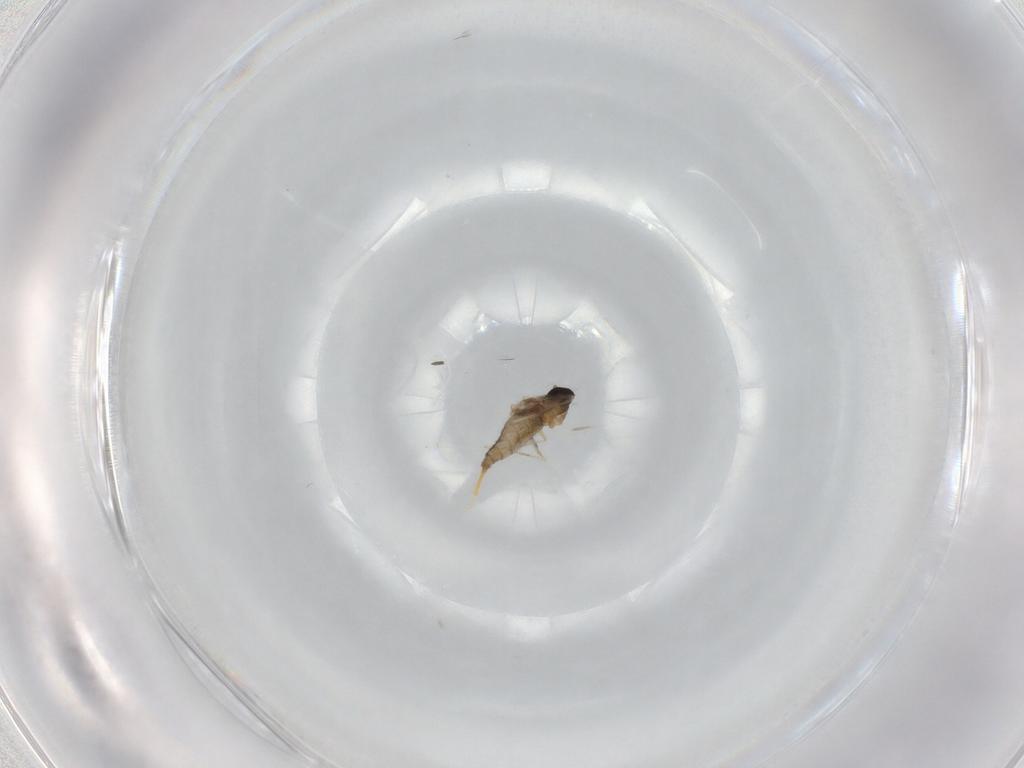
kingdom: Animalia
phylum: Arthropoda
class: Insecta
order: Diptera
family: Cecidomyiidae
